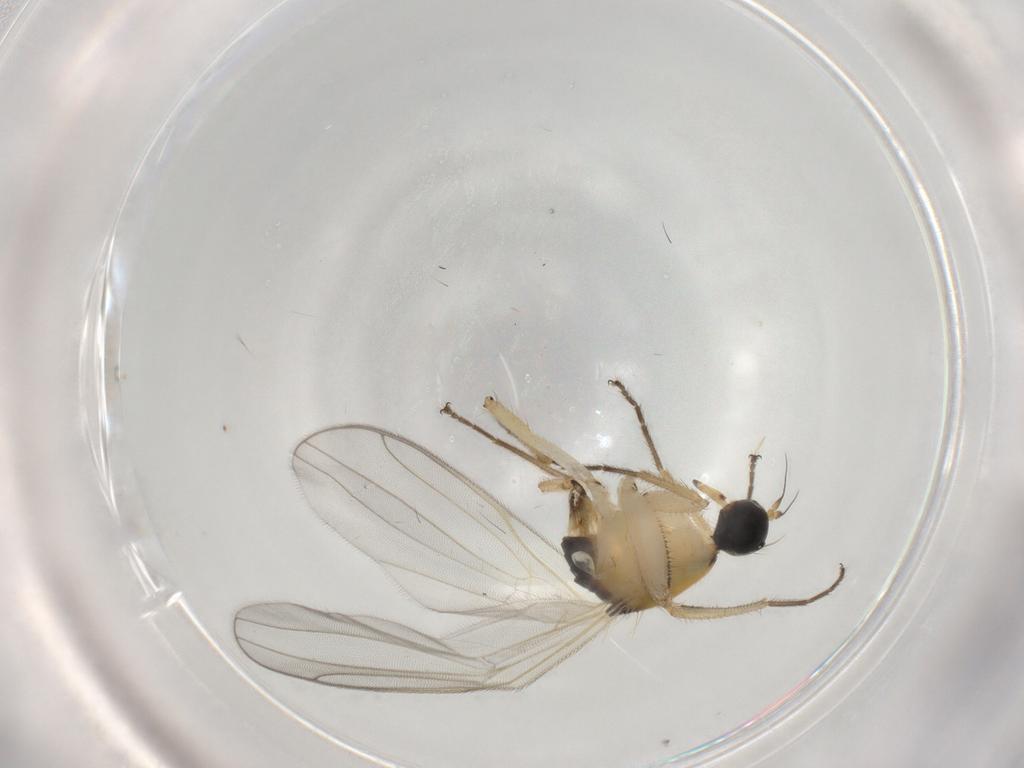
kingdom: Animalia
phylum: Arthropoda
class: Insecta
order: Diptera
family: Hybotidae
